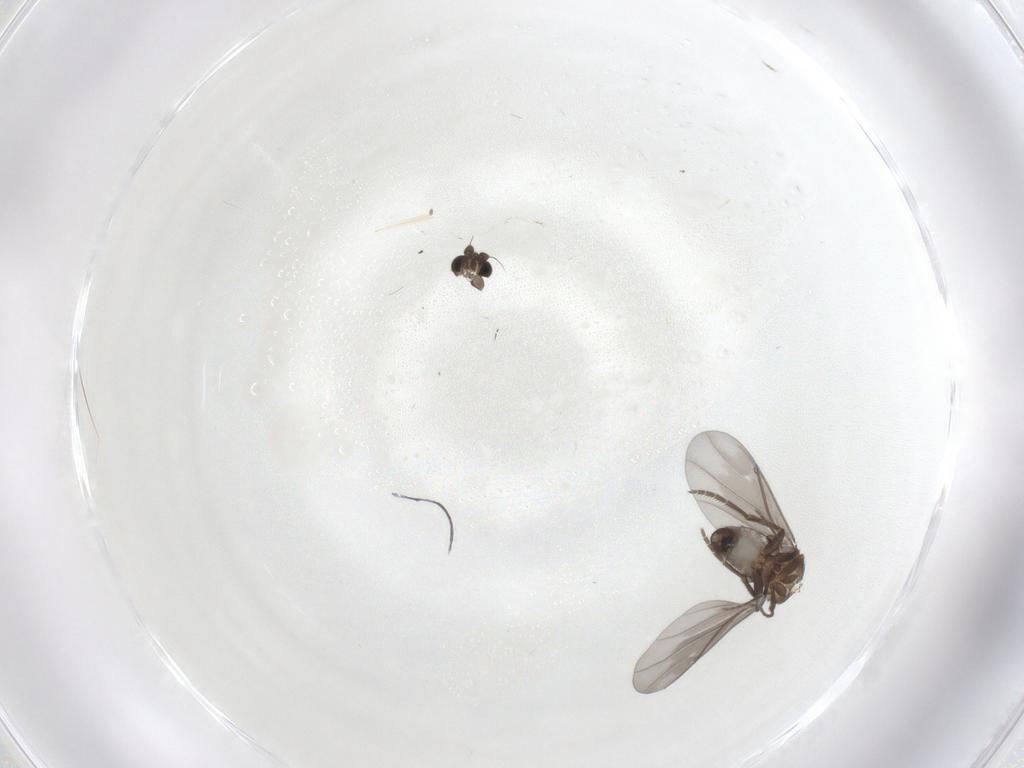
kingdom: Animalia
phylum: Arthropoda
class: Insecta
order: Diptera
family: Phoridae
